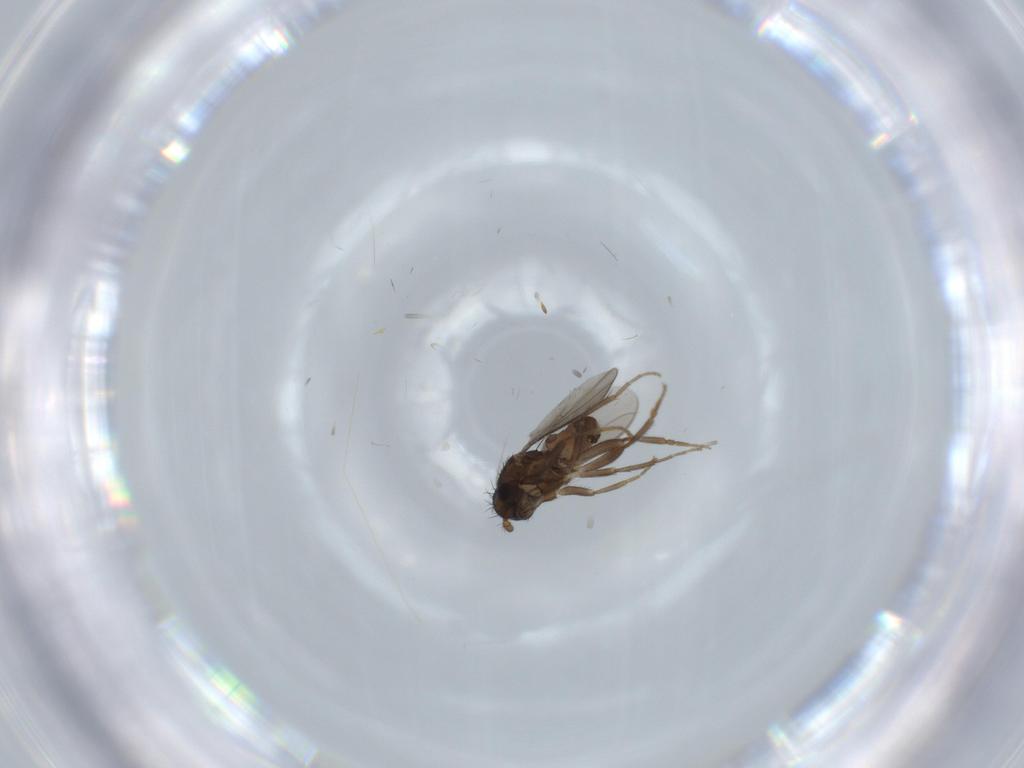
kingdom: Animalia
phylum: Arthropoda
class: Insecta
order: Diptera
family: Sphaeroceridae
